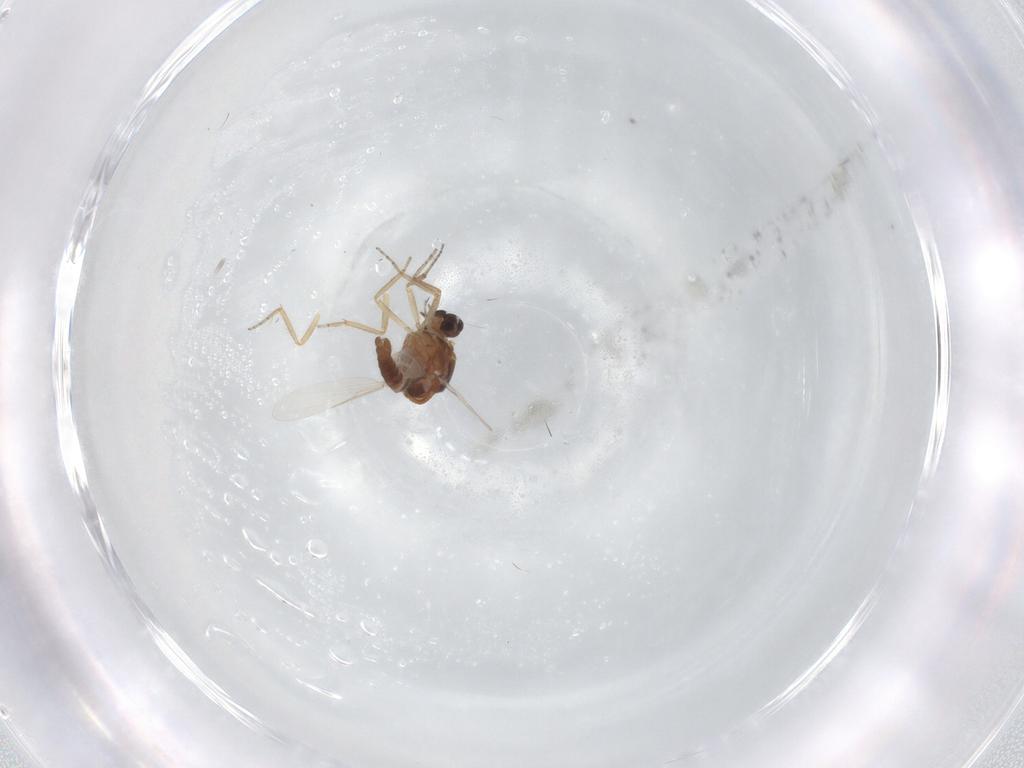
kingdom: Animalia
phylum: Arthropoda
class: Insecta
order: Diptera
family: Ceratopogonidae
